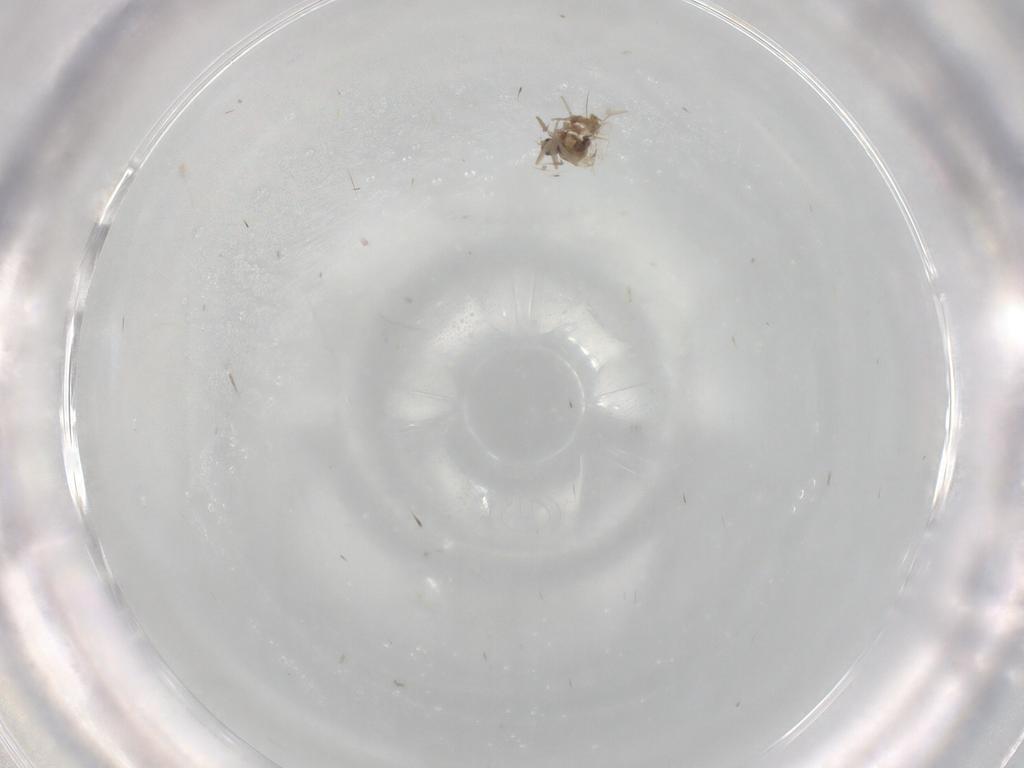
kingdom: Animalia
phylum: Arthropoda
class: Insecta
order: Diptera
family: Cecidomyiidae
